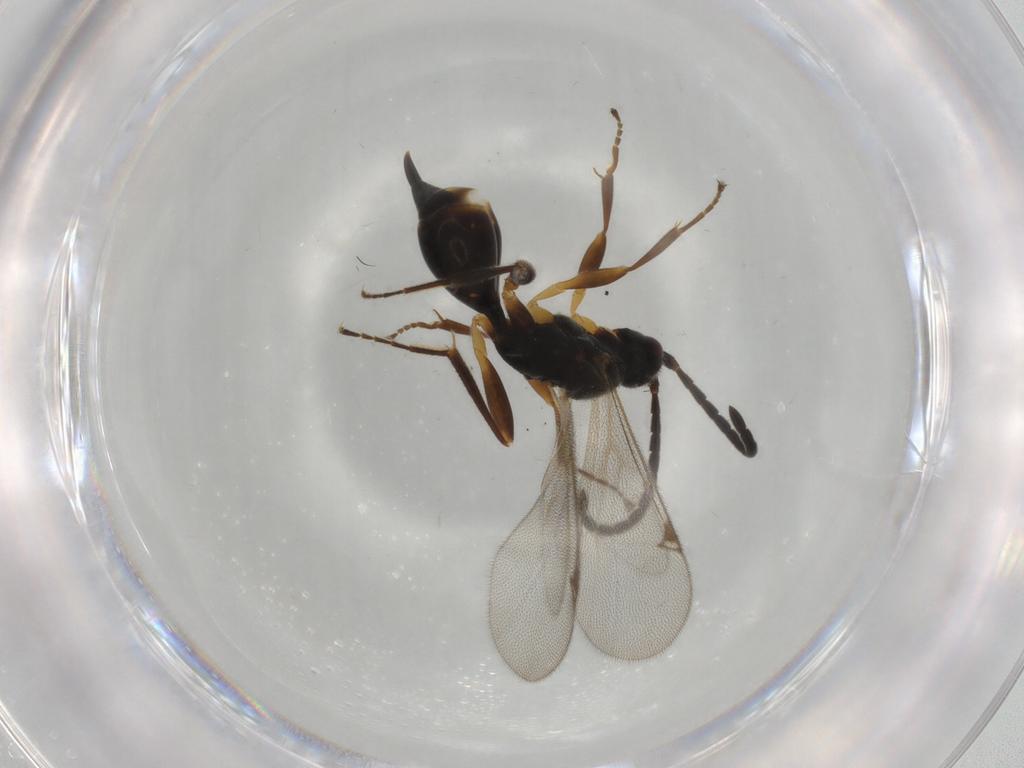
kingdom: Animalia
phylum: Arthropoda
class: Insecta
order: Hymenoptera
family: Proctotrupidae
